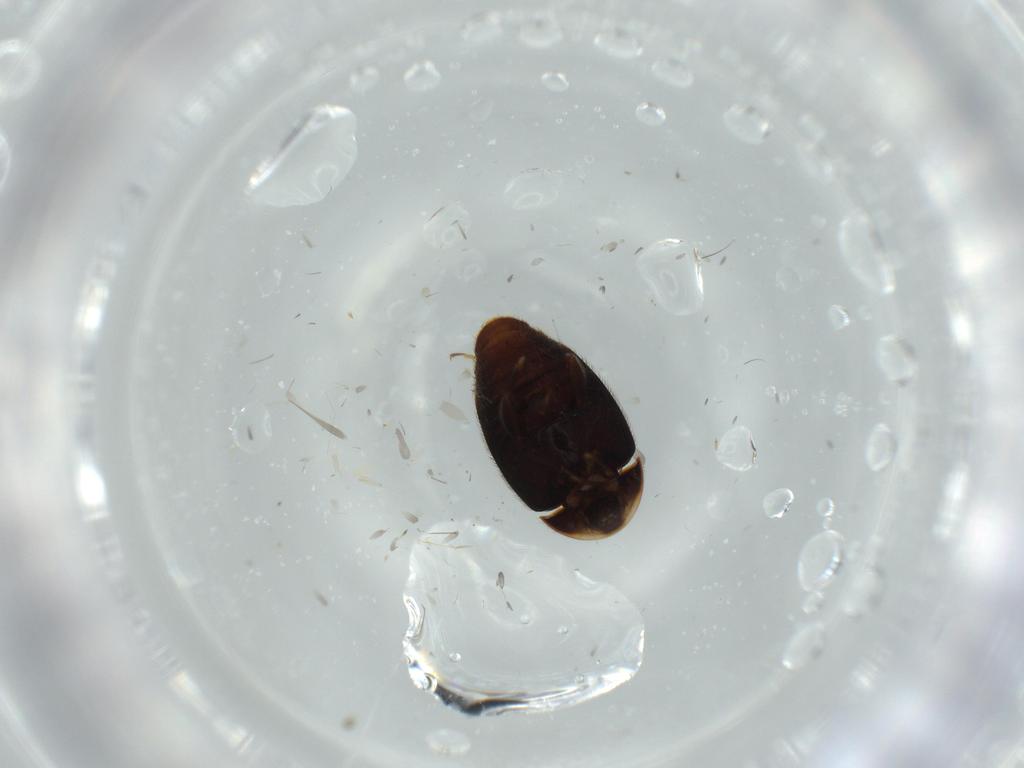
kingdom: Animalia
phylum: Arthropoda
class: Insecta
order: Coleoptera
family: Corylophidae
